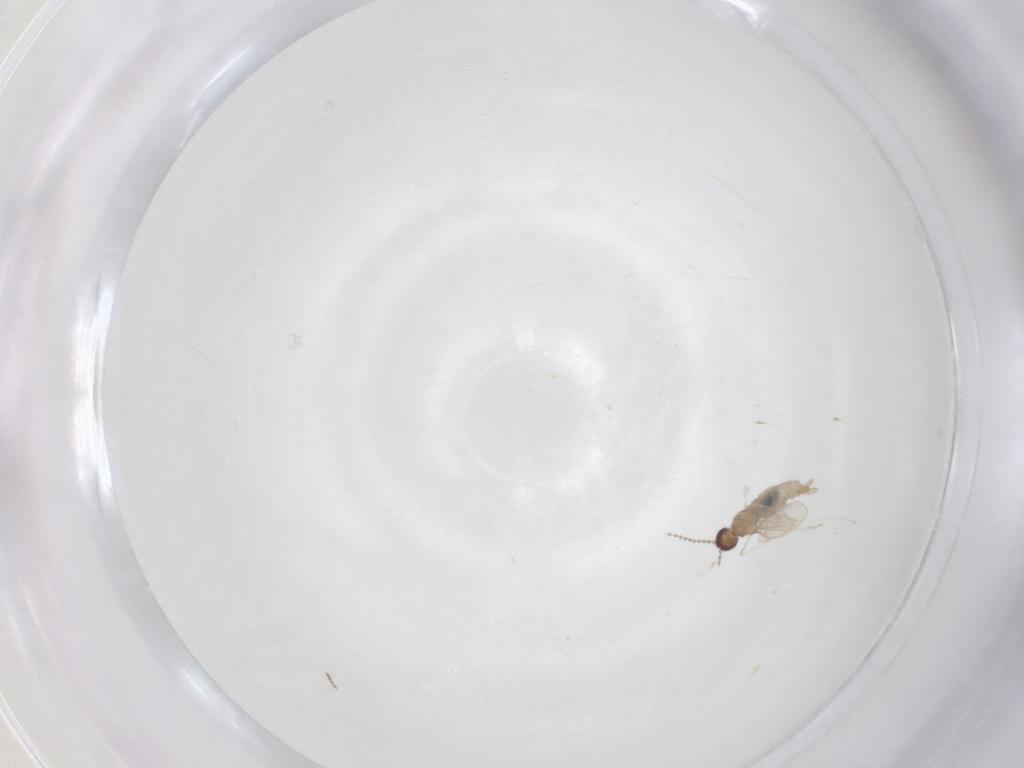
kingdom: Animalia
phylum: Arthropoda
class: Insecta
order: Diptera
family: Cecidomyiidae
